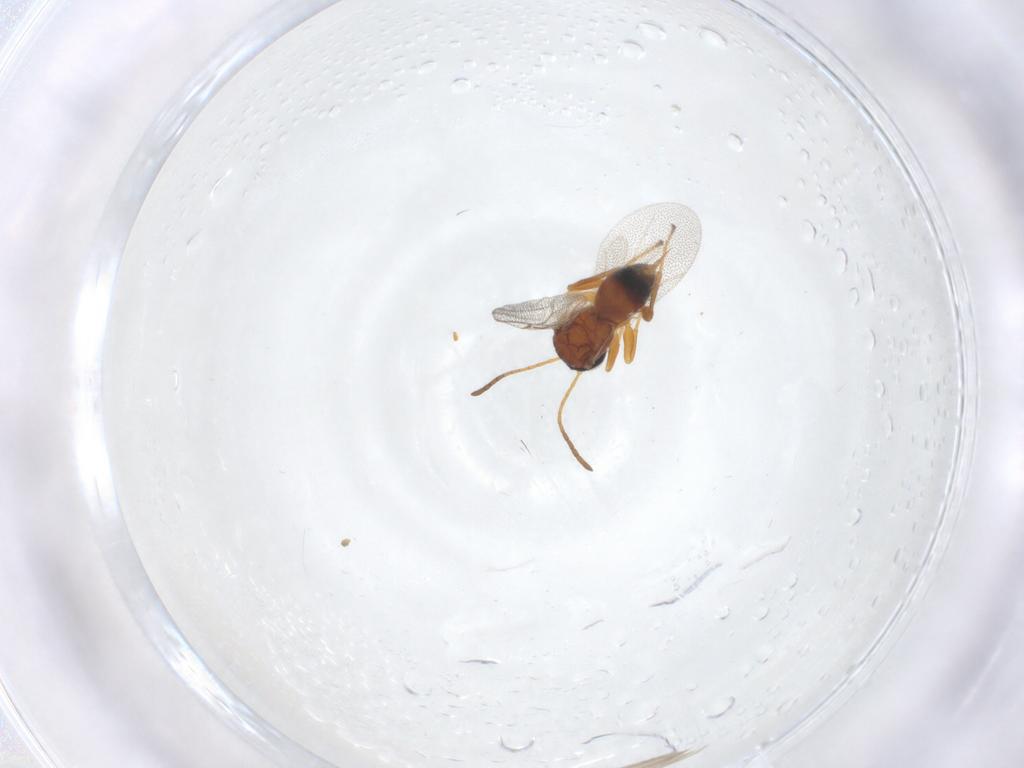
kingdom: Animalia
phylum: Arthropoda
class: Insecta
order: Hymenoptera
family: Cynipidae
